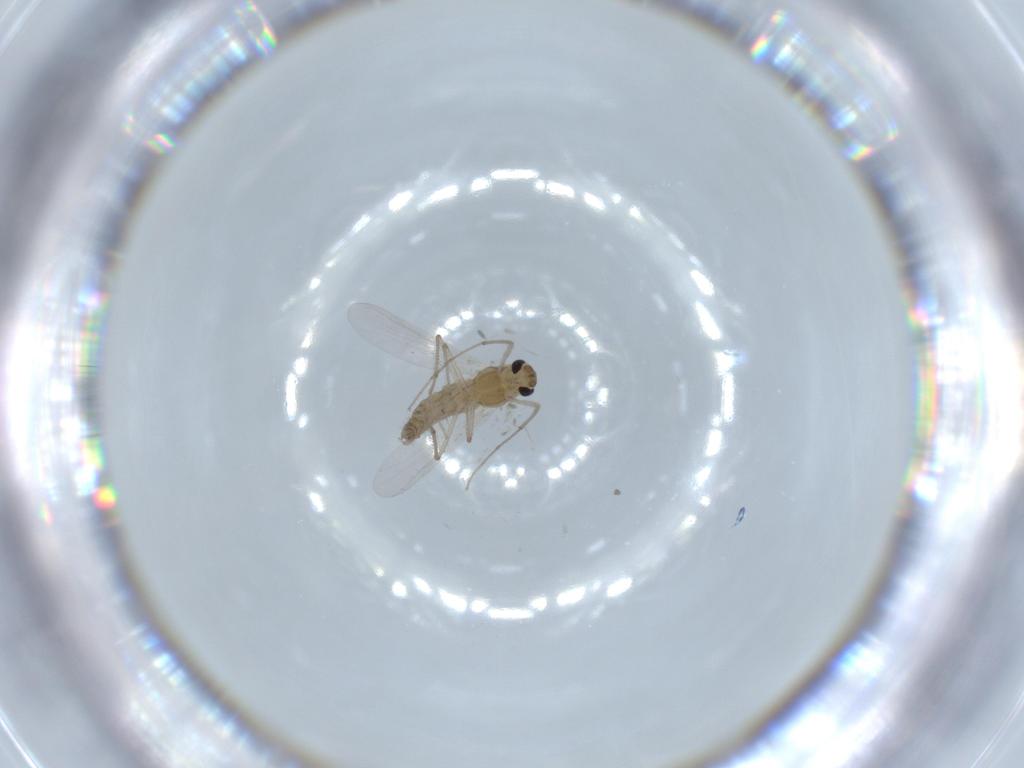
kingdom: Animalia
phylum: Arthropoda
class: Insecta
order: Diptera
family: Chironomidae
